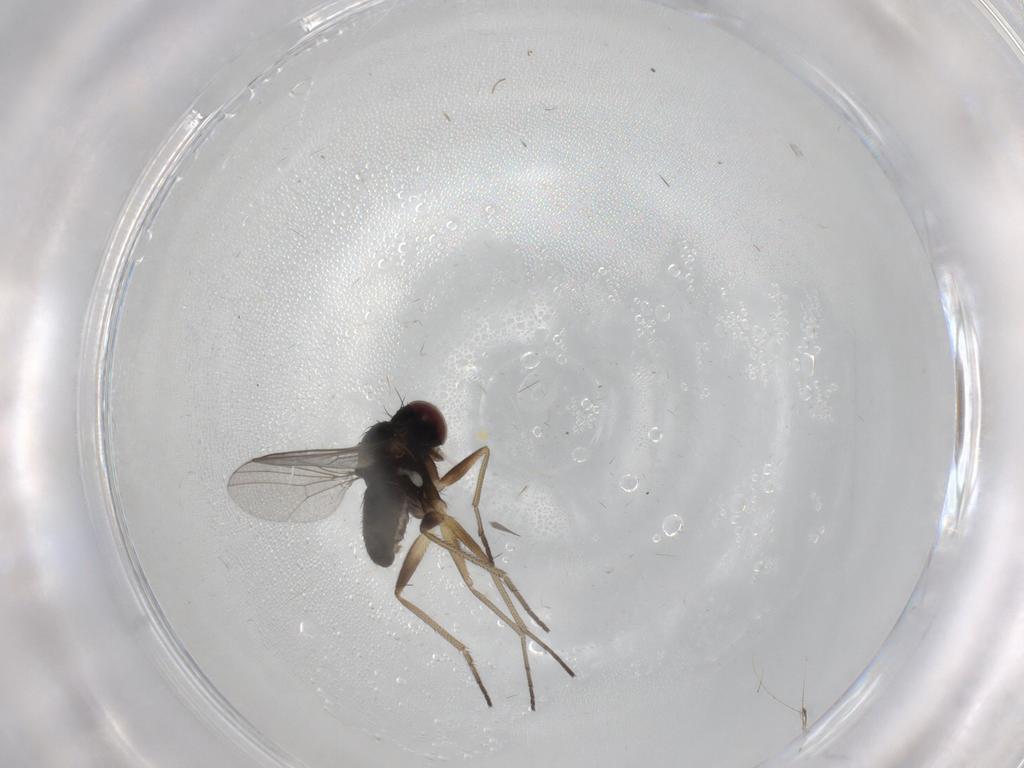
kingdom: Animalia
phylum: Arthropoda
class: Insecta
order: Diptera
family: Dolichopodidae
